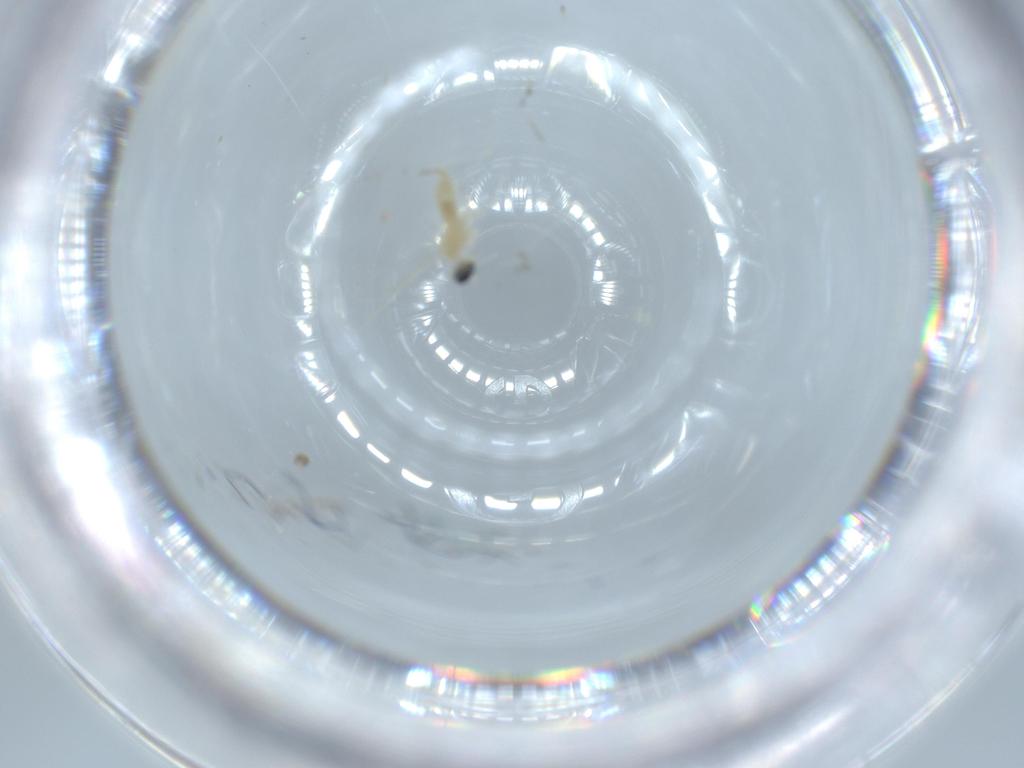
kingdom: Animalia
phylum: Arthropoda
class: Insecta
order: Diptera
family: Cecidomyiidae
